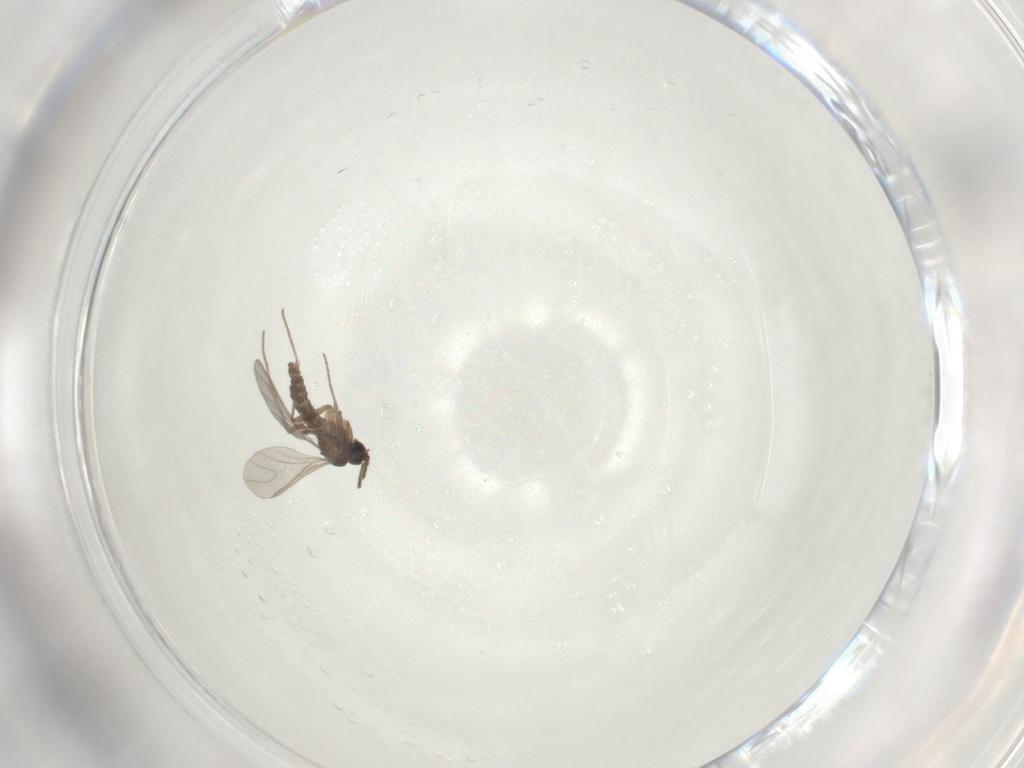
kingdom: Animalia
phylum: Arthropoda
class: Insecta
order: Diptera
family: Sciaridae
